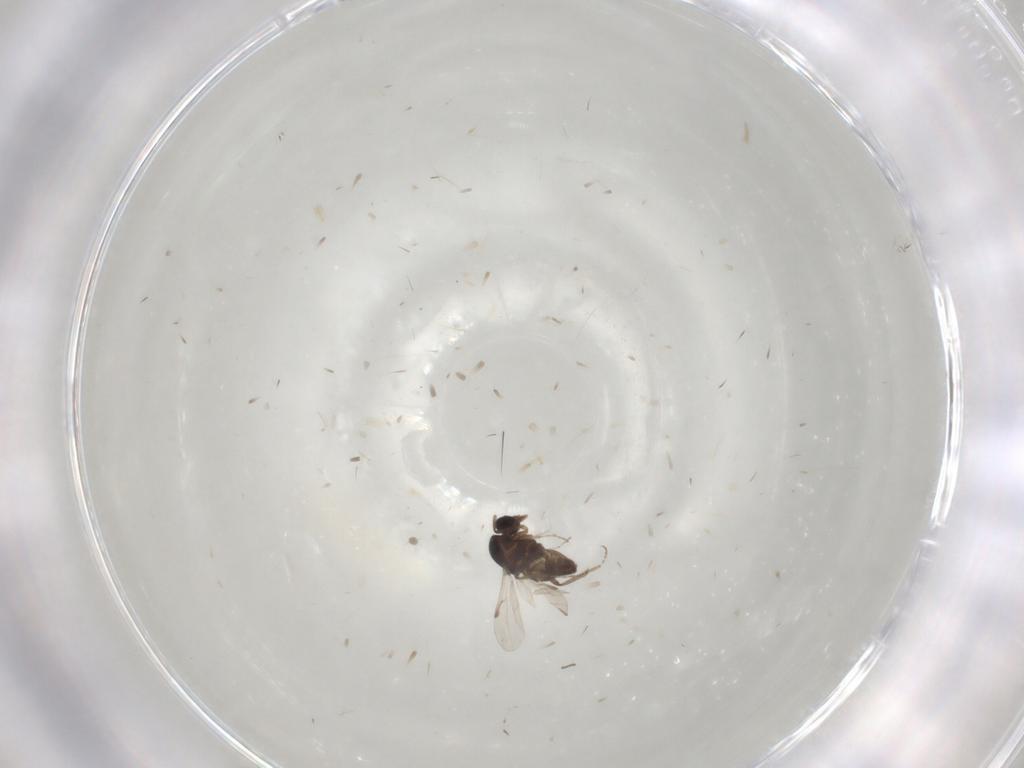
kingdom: Animalia
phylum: Arthropoda
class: Insecta
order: Diptera
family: Ceratopogonidae
